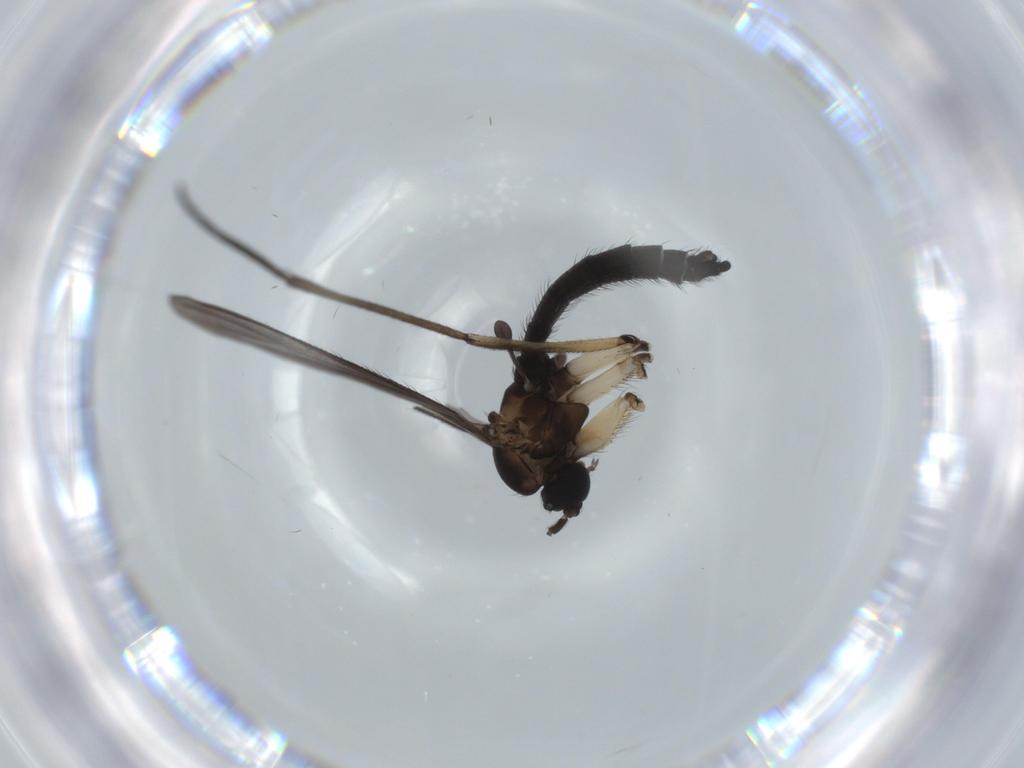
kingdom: Animalia
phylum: Arthropoda
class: Insecta
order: Diptera
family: Sciaridae
